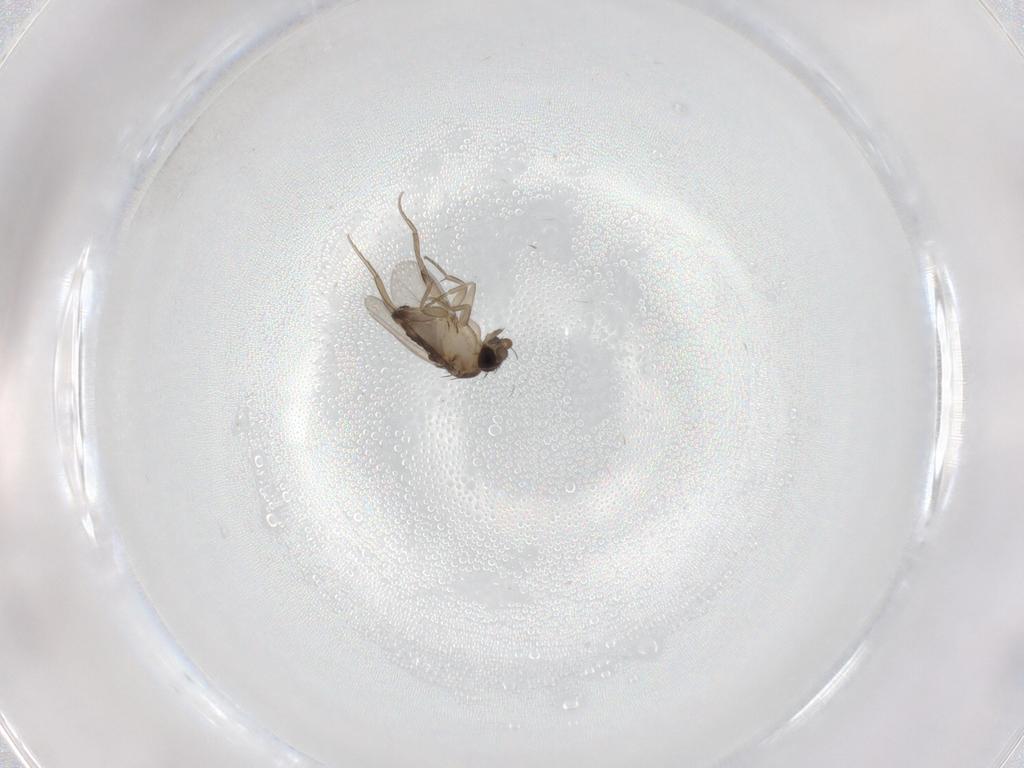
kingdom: Animalia
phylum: Arthropoda
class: Insecta
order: Diptera
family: Phoridae
